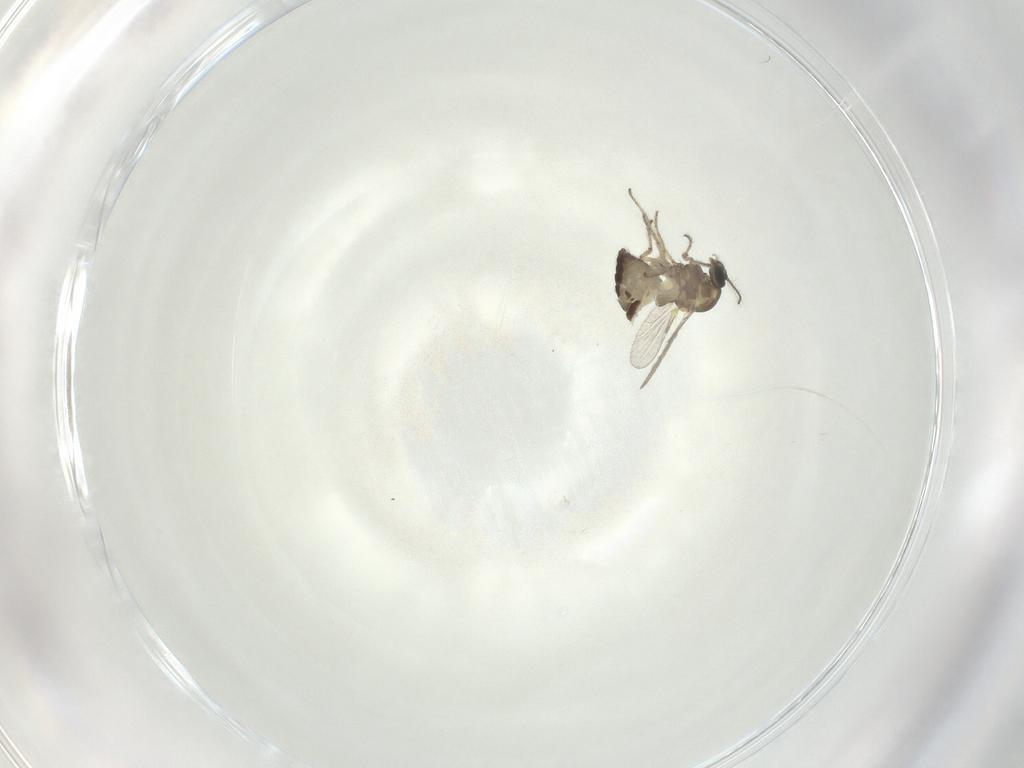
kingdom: Animalia
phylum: Arthropoda
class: Insecta
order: Diptera
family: Ceratopogonidae
